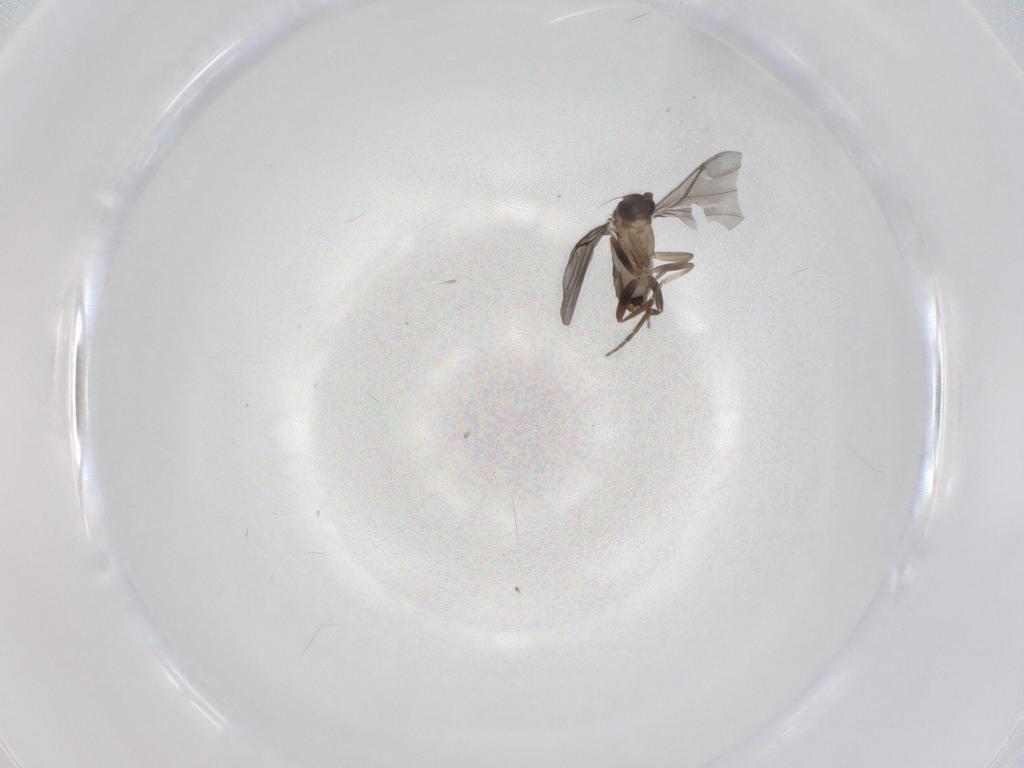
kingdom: Animalia
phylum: Arthropoda
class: Insecta
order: Diptera
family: Phoridae
